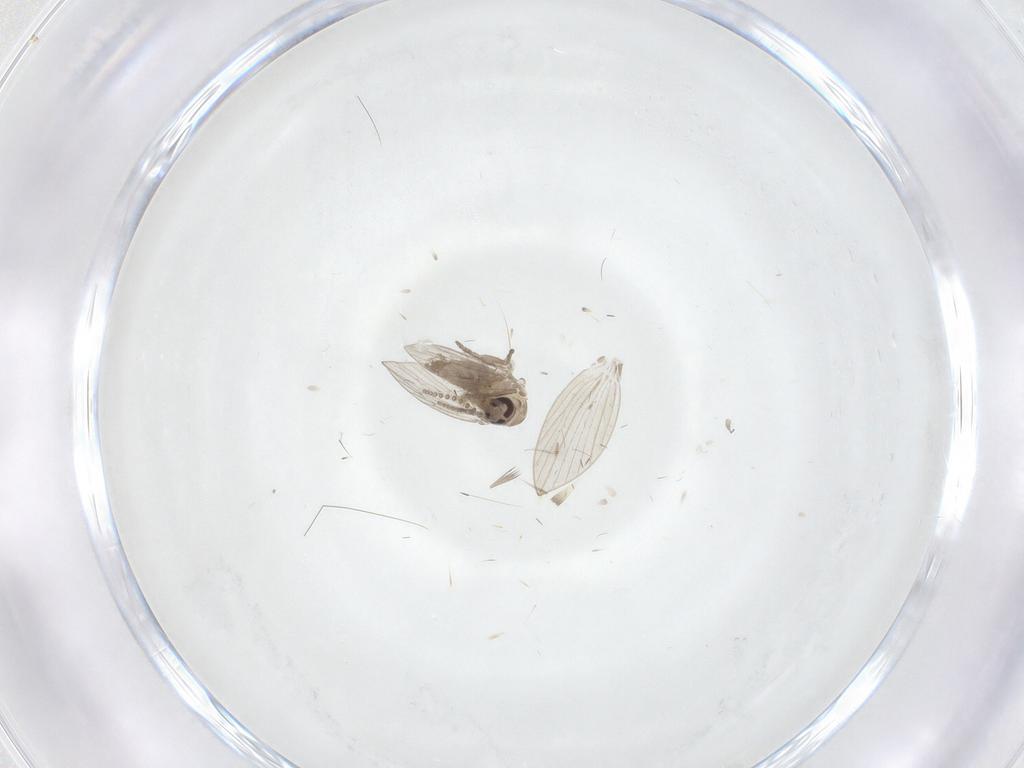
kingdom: Animalia
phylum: Arthropoda
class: Insecta
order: Diptera
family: Psychodidae
